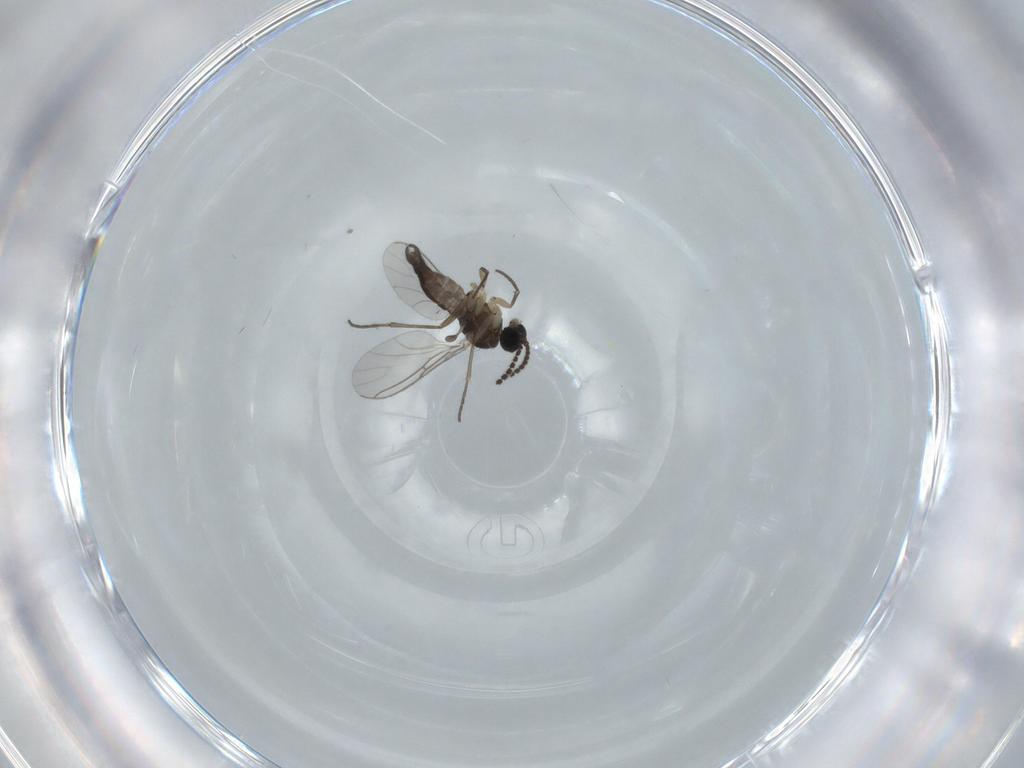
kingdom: Animalia
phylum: Arthropoda
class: Insecta
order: Diptera
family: Sciaridae
